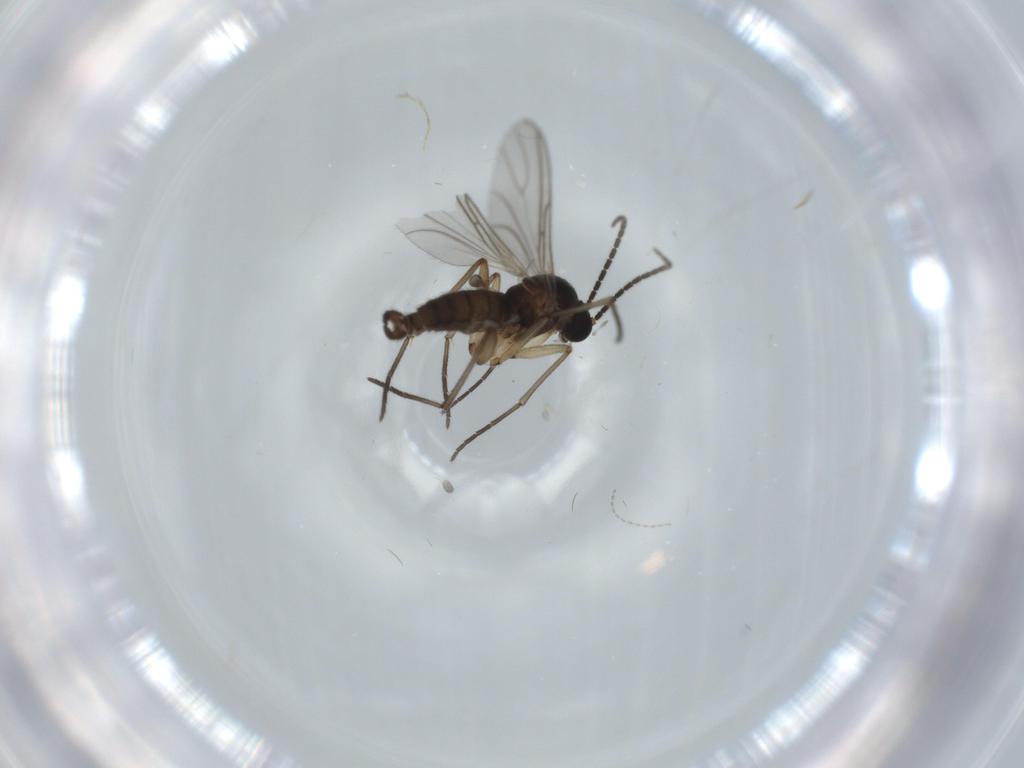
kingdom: Animalia
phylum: Arthropoda
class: Insecta
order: Diptera
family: Sciaridae
